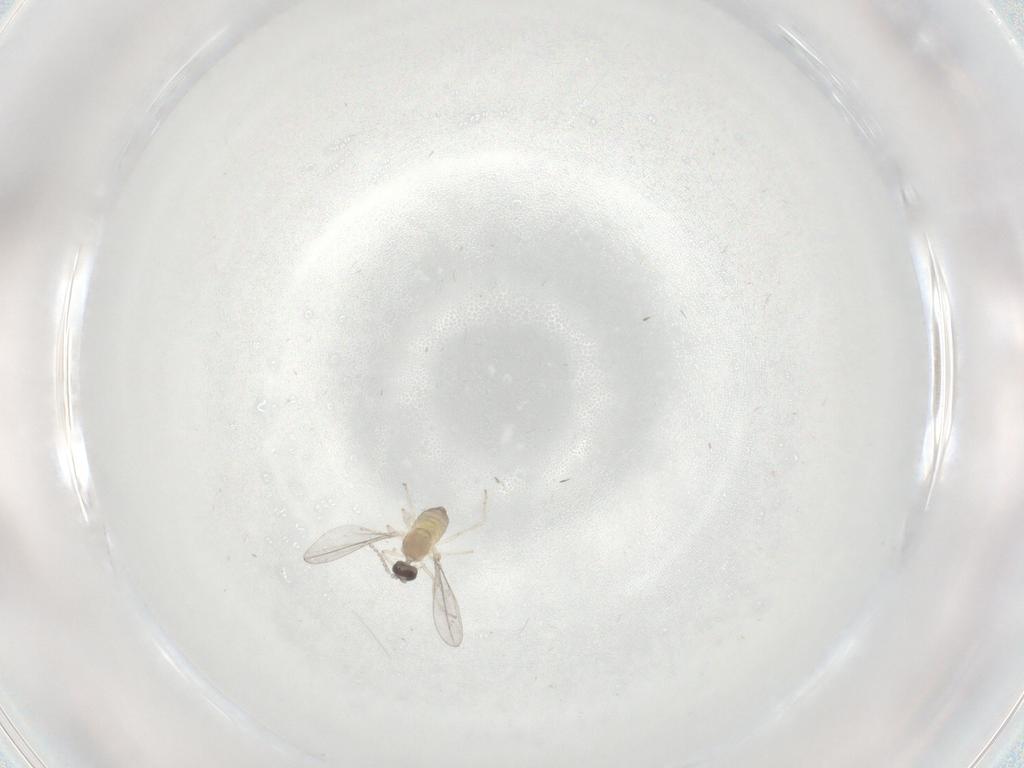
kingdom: Animalia
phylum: Arthropoda
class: Insecta
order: Diptera
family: Cecidomyiidae
